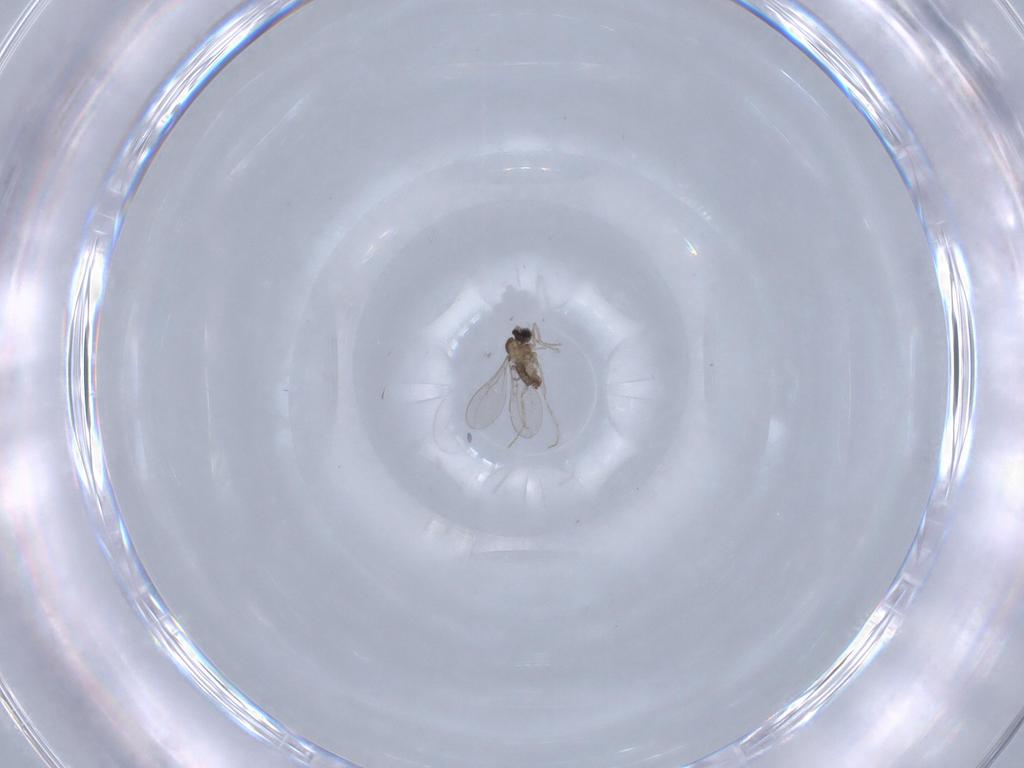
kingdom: Animalia
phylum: Arthropoda
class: Insecta
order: Diptera
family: Cecidomyiidae
